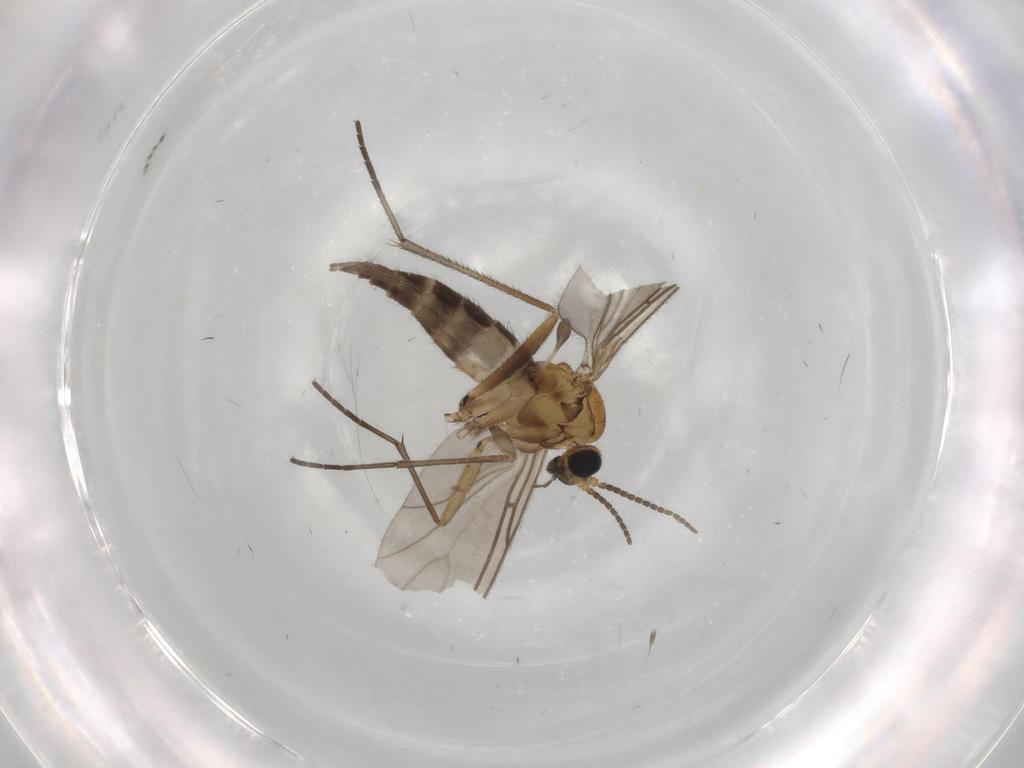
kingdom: Animalia
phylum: Arthropoda
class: Insecta
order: Diptera
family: Sciaridae
